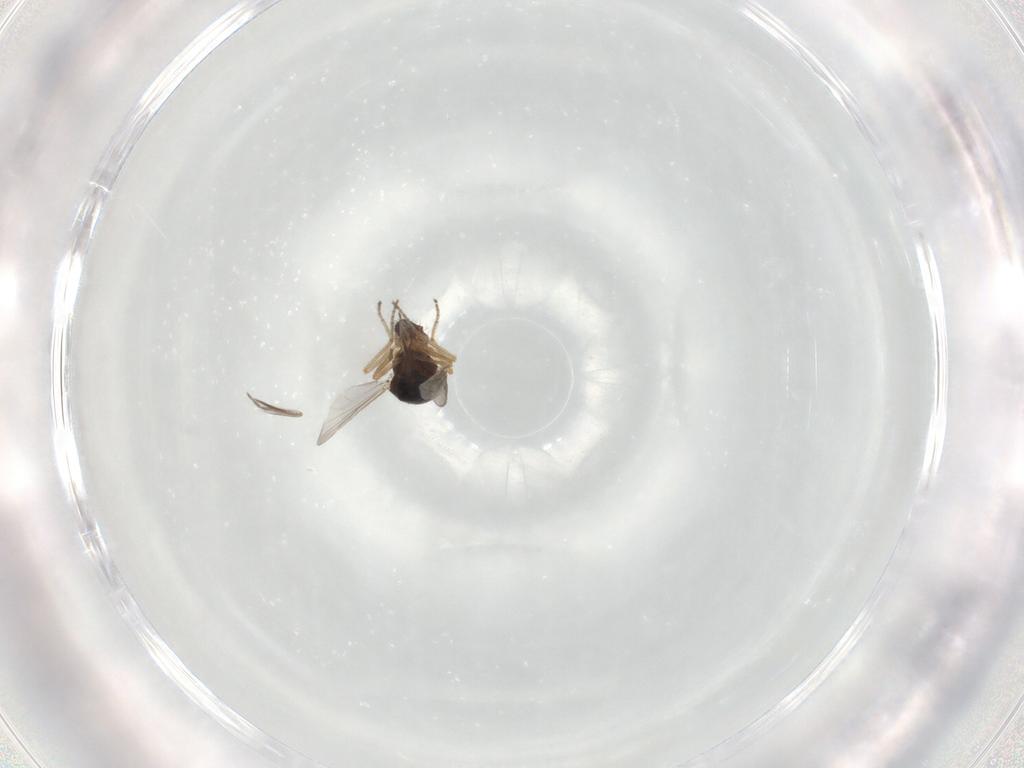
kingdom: Animalia
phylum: Arthropoda
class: Insecta
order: Diptera
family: Ceratopogonidae
